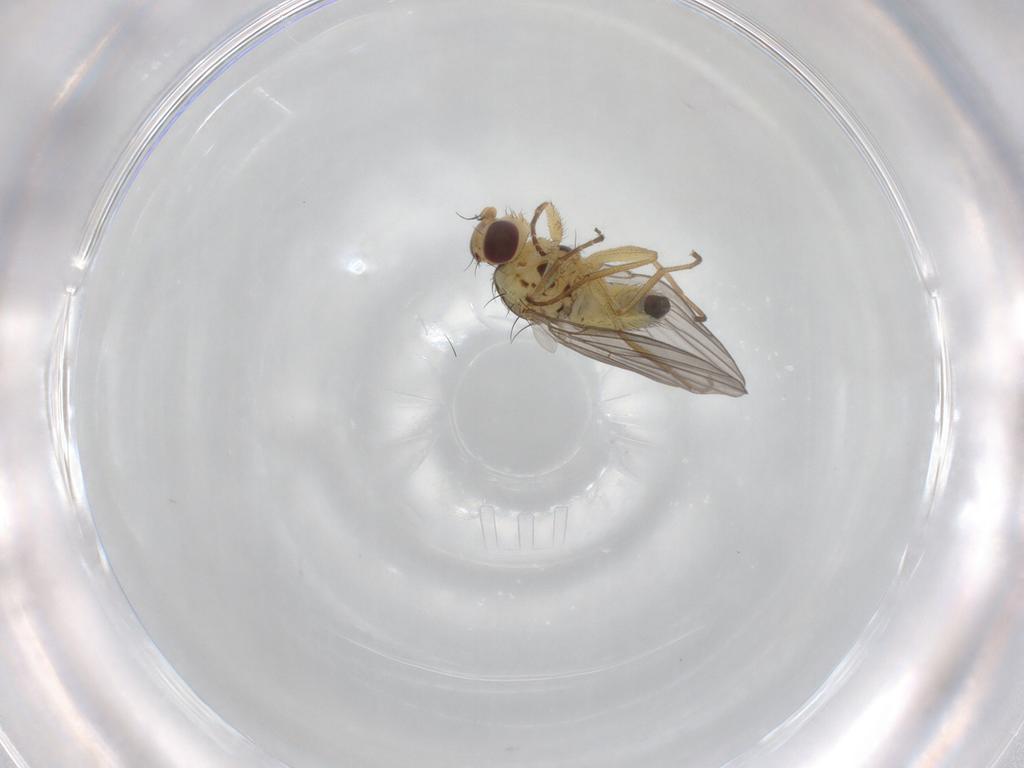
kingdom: Animalia
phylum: Arthropoda
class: Insecta
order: Diptera
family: Agromyzidae
